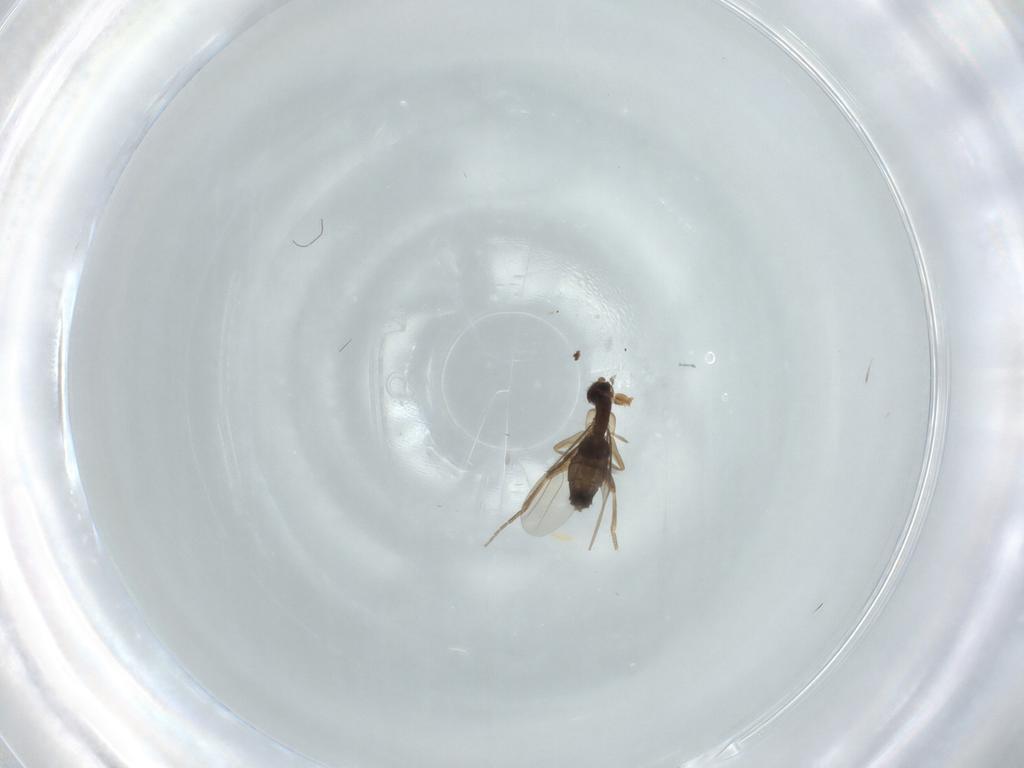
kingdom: Animalia
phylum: Arthropoda
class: Insecta
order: Diptera
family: Phoridae
